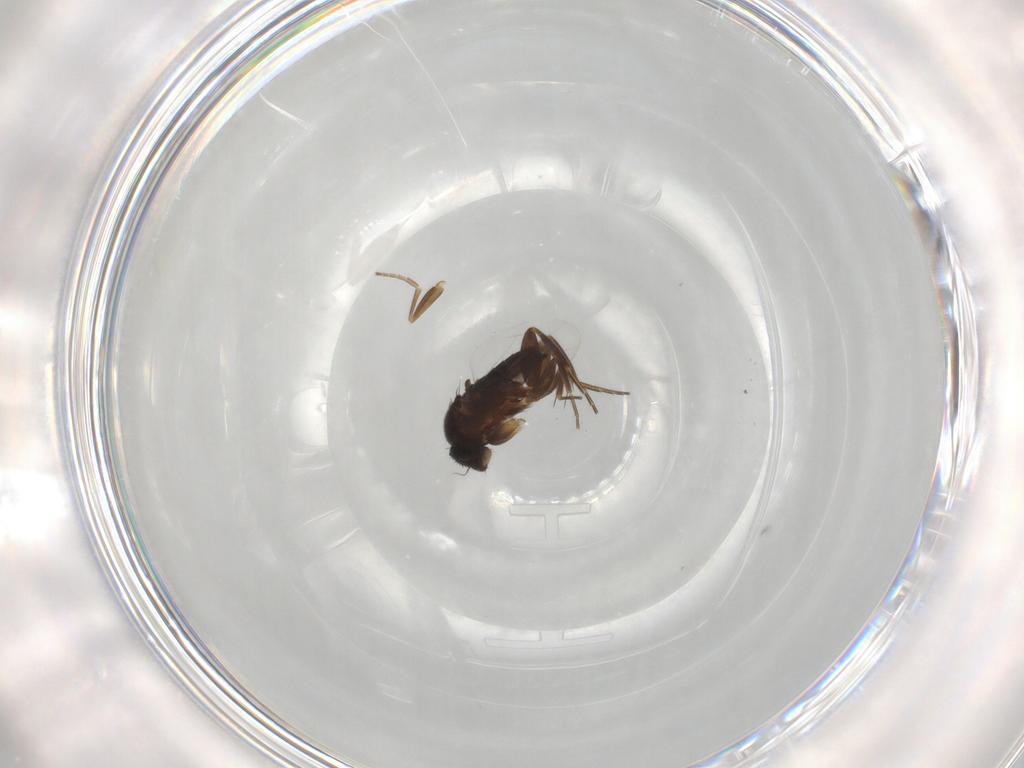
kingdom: Animalia
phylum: Arthropoda
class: Insecta
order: Diptera
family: Phoridae
